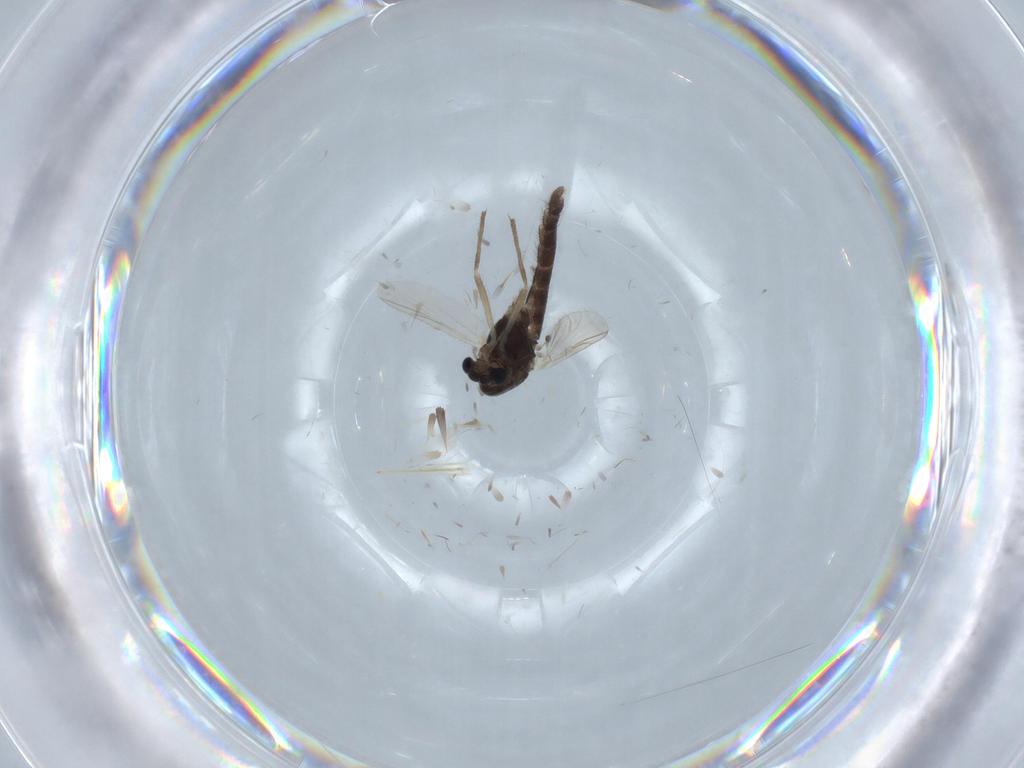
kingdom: Animalia
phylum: Arthropoda
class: Insecta
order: Diptera
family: Chironomidae
